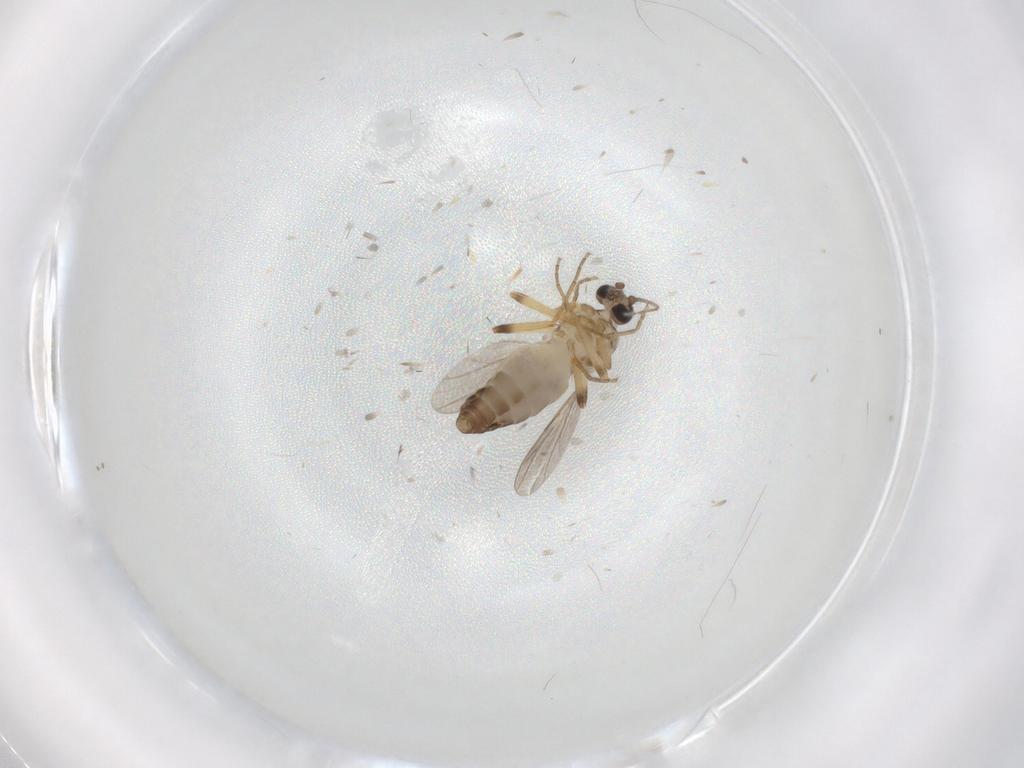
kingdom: Animalia
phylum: Arthropoda
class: Insecta
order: Diptera
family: Ceratopogonidae
